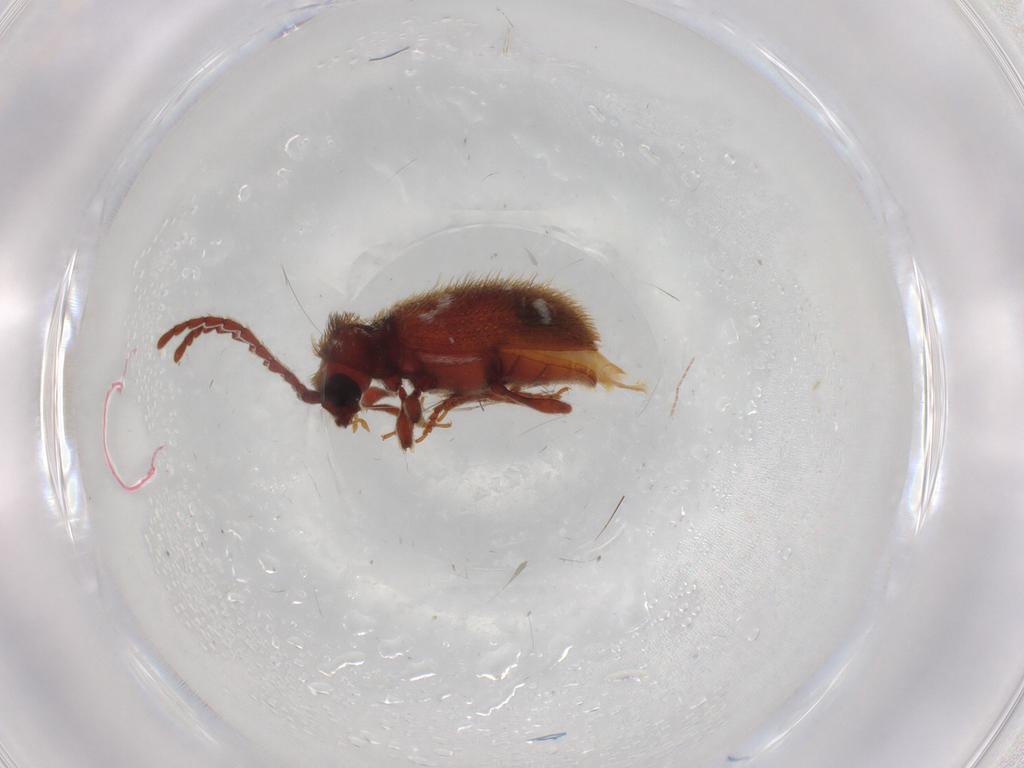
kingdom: Animalia
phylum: Arthropoda
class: Insecta
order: Coleoptera
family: Ptinidae
